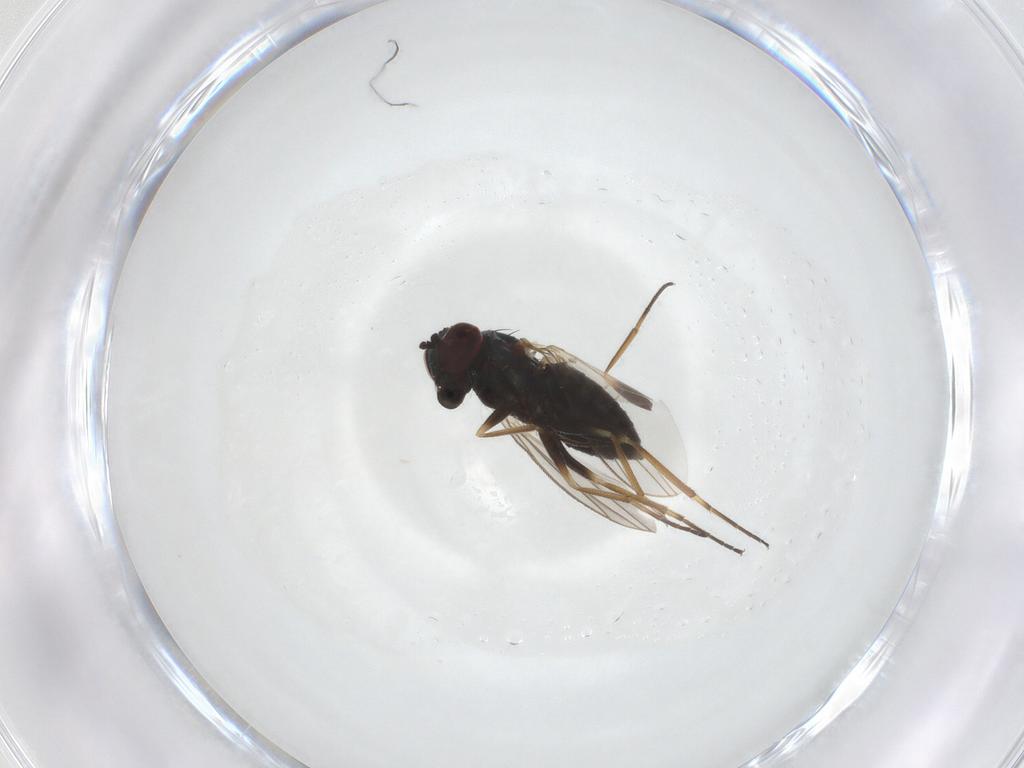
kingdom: Animalia
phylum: Arthropoda
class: Insecta
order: Diptera
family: Dolichopodidae
